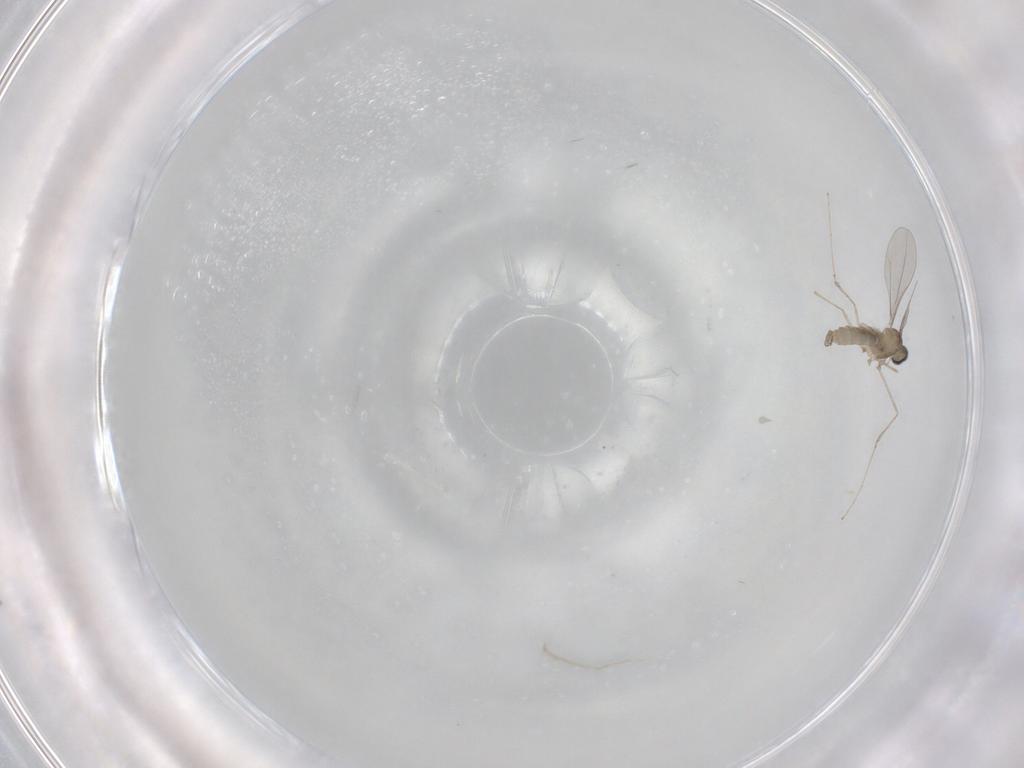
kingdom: Animalia
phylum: Arthropoda
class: Insecta
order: Diptera
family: Cecidomyiidae
